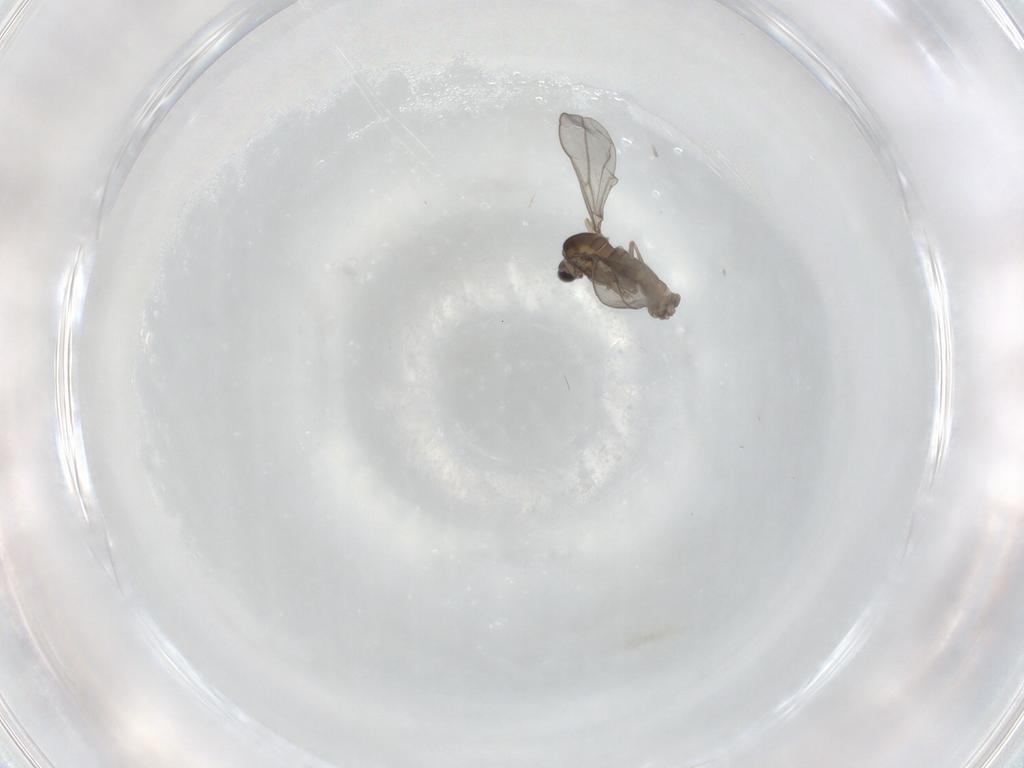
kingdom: Animalia
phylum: Arthropoda
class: Insecta
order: Diptera
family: Cecidomyiidae
